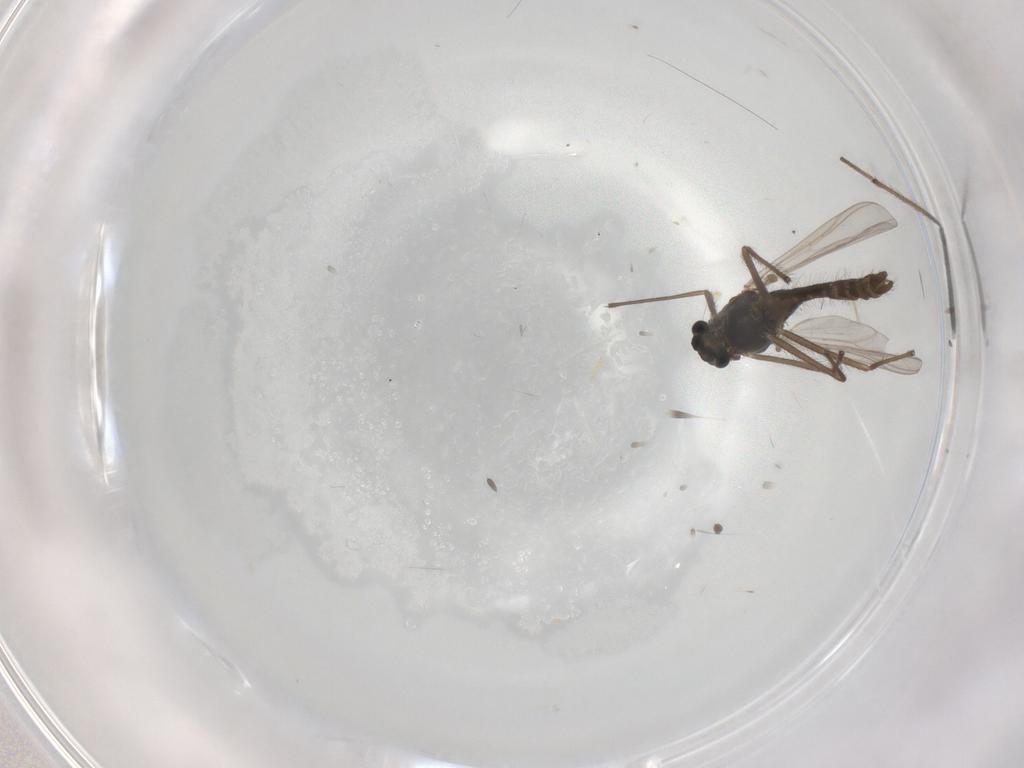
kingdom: Animalia
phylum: Arthropoda
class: Insecta
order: Diptera
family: Chironomidae
